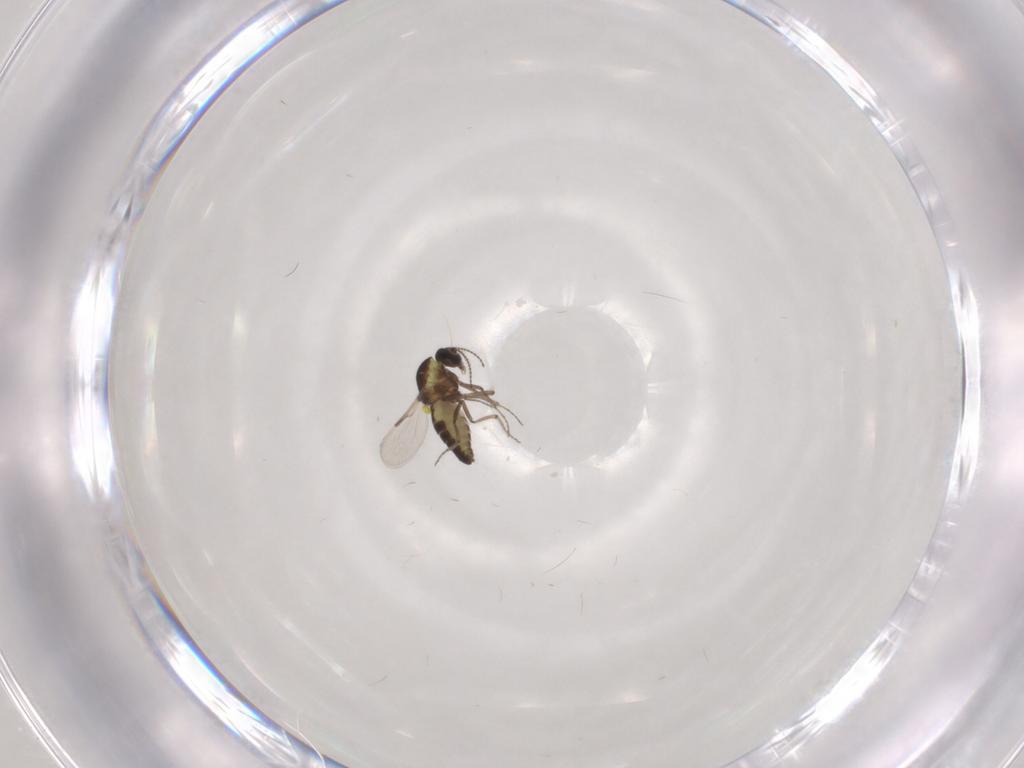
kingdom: Animalia
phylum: Arthropoda
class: Insecta
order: Diptera
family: Ceratopogonidae
